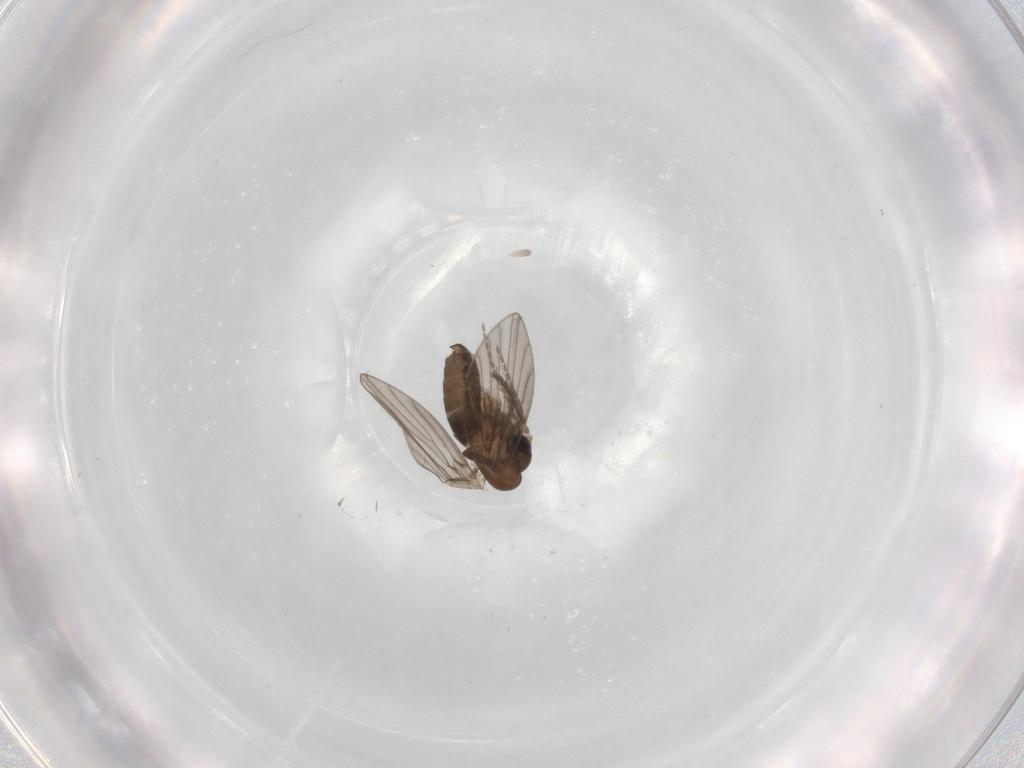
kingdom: Animalia
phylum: Arthropoda
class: Insecta
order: Diptera
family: Psychodidae
